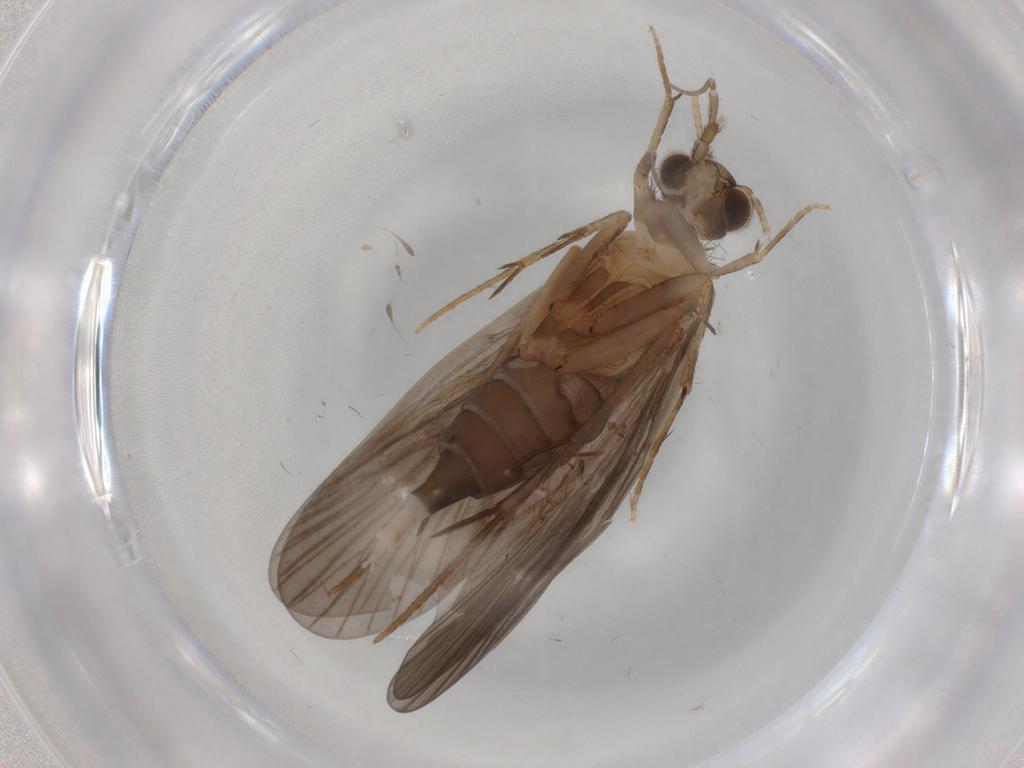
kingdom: Animalia
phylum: Arthropoda
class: Insecta
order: Trichoptera
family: Philopotamidae
